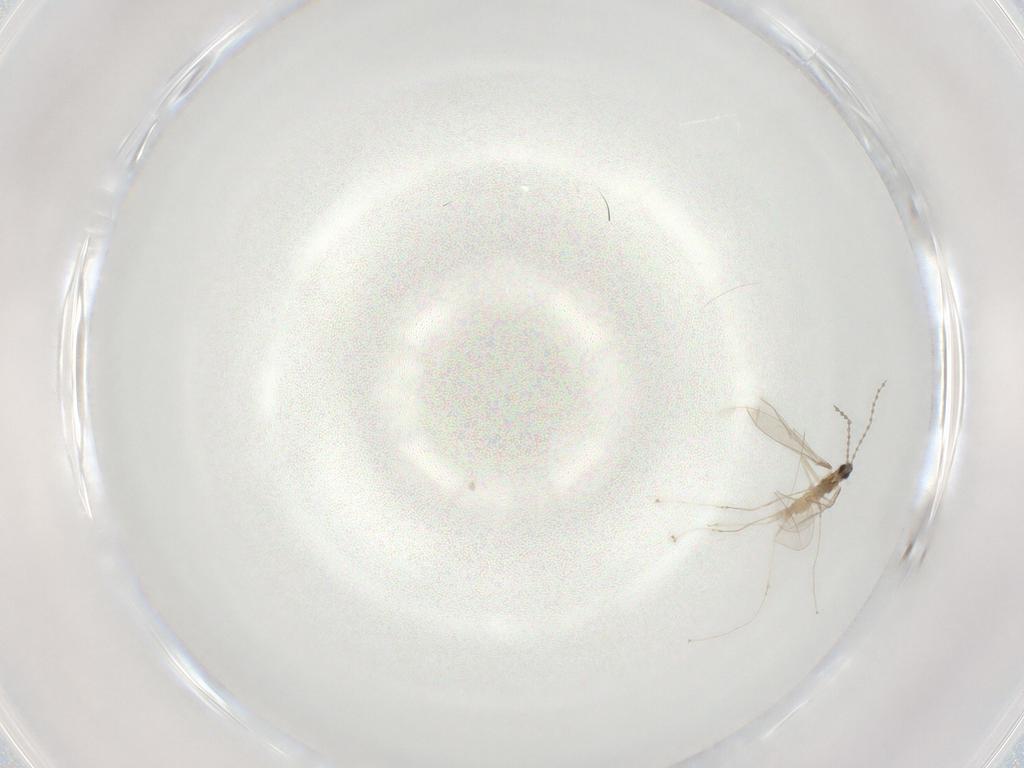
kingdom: Animalia
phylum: Arthropoda
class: Insecta
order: Diptera
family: Cecidomyiidae
